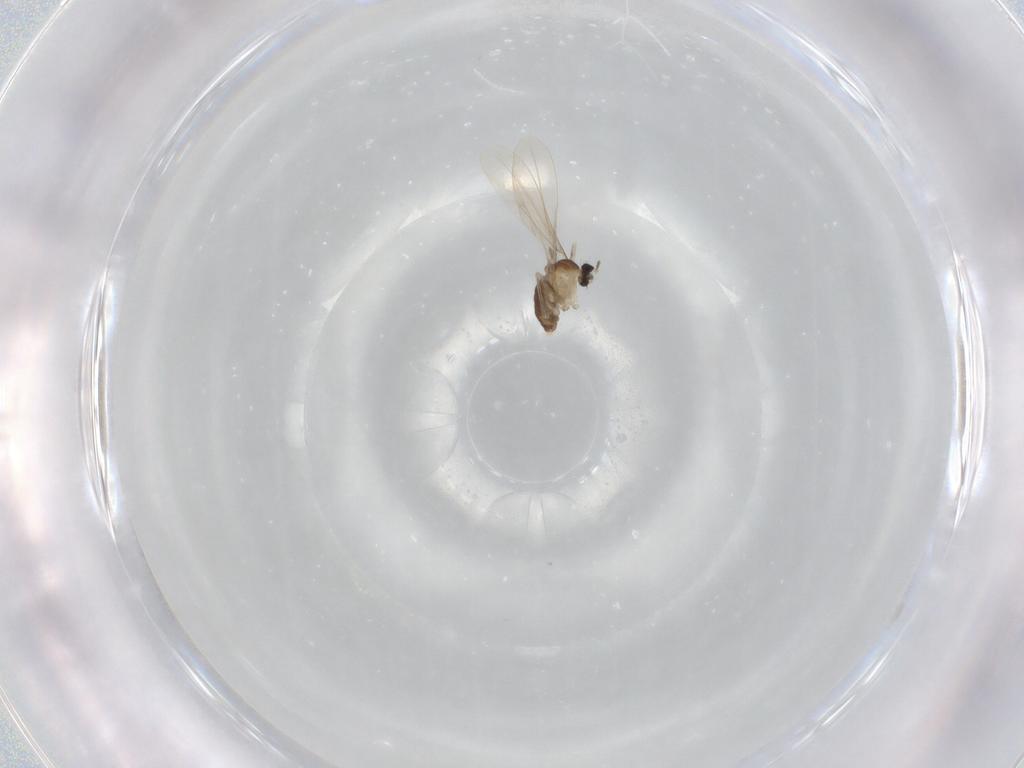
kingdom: Animalia
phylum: Arthropoda
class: Insecta
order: Diptera
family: Cecidomyiidae
